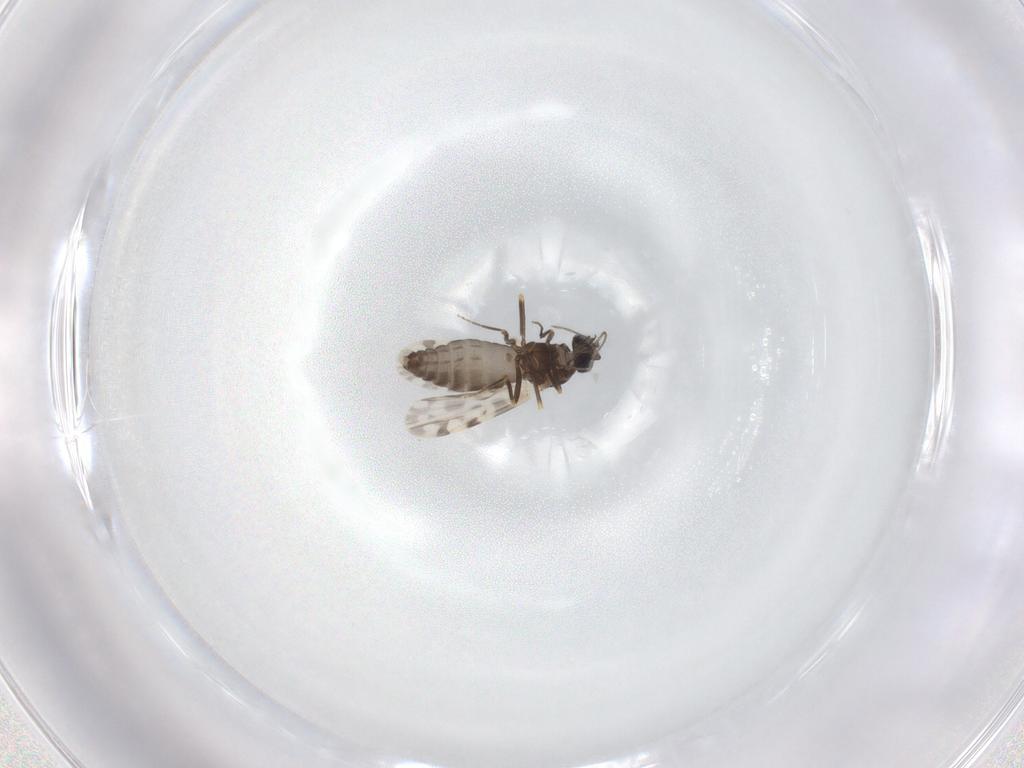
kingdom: Animalia
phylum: Arthropoda
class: Insecta
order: Diptera
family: Ceratopogonidae
